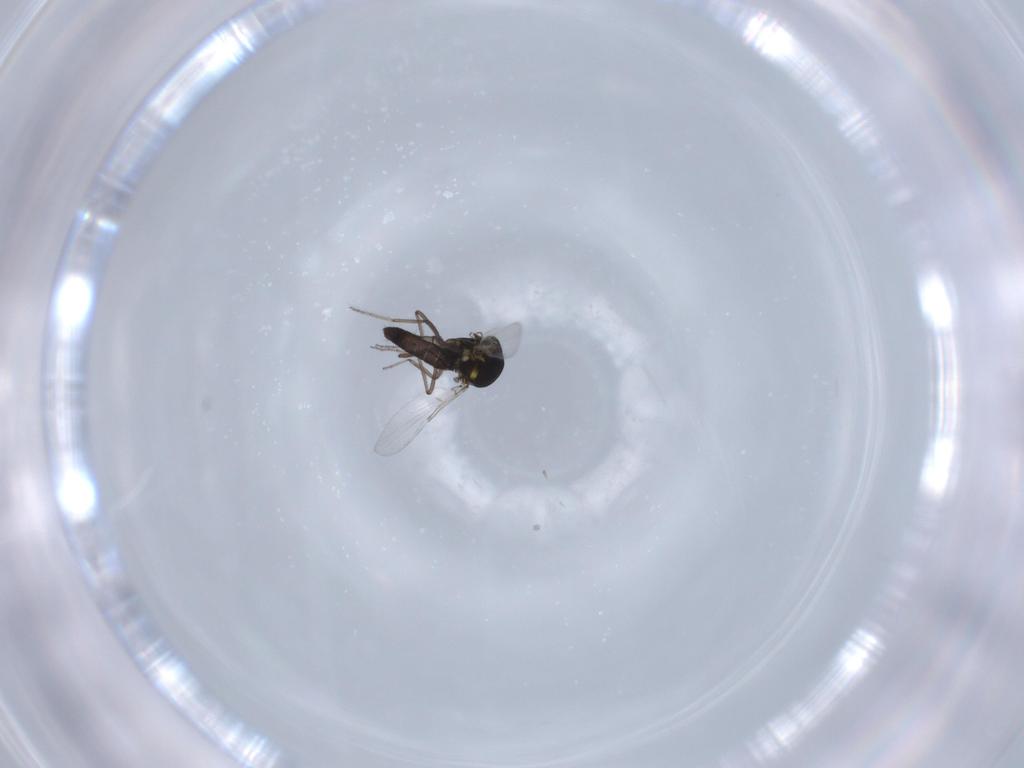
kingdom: Animalia
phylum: Arthropoda
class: Insecta
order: Diptera
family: Ceratopogonidae
